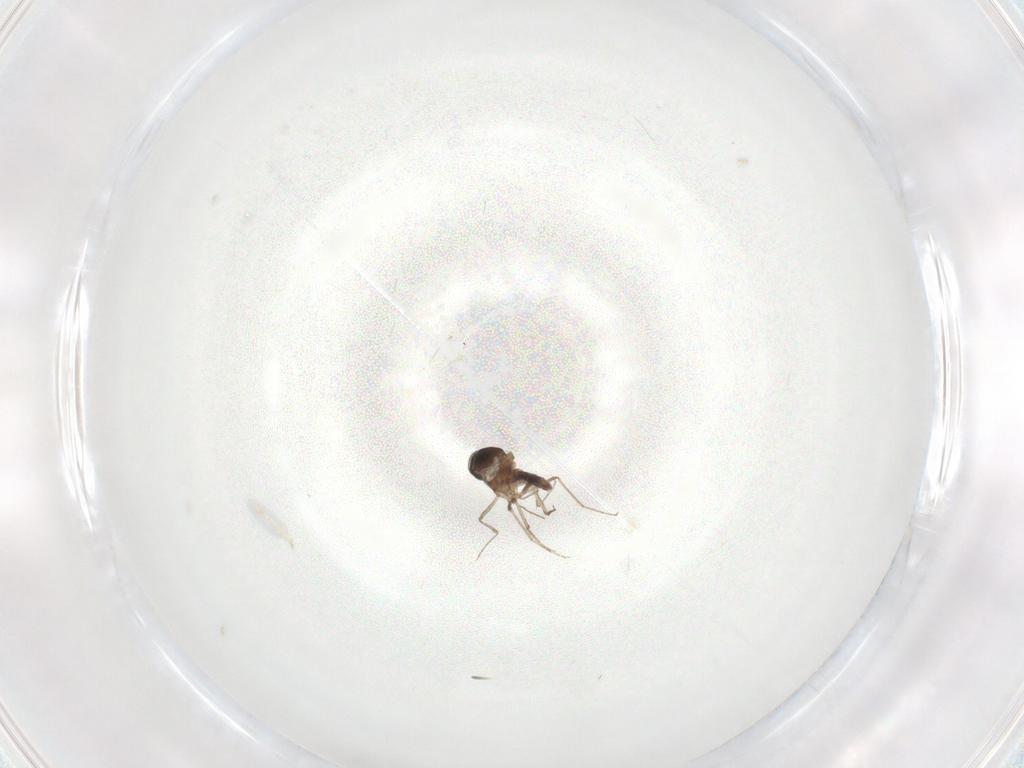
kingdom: Animalia
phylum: Arthropoda
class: Insecta
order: Diptera
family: Ceratopogonidae
